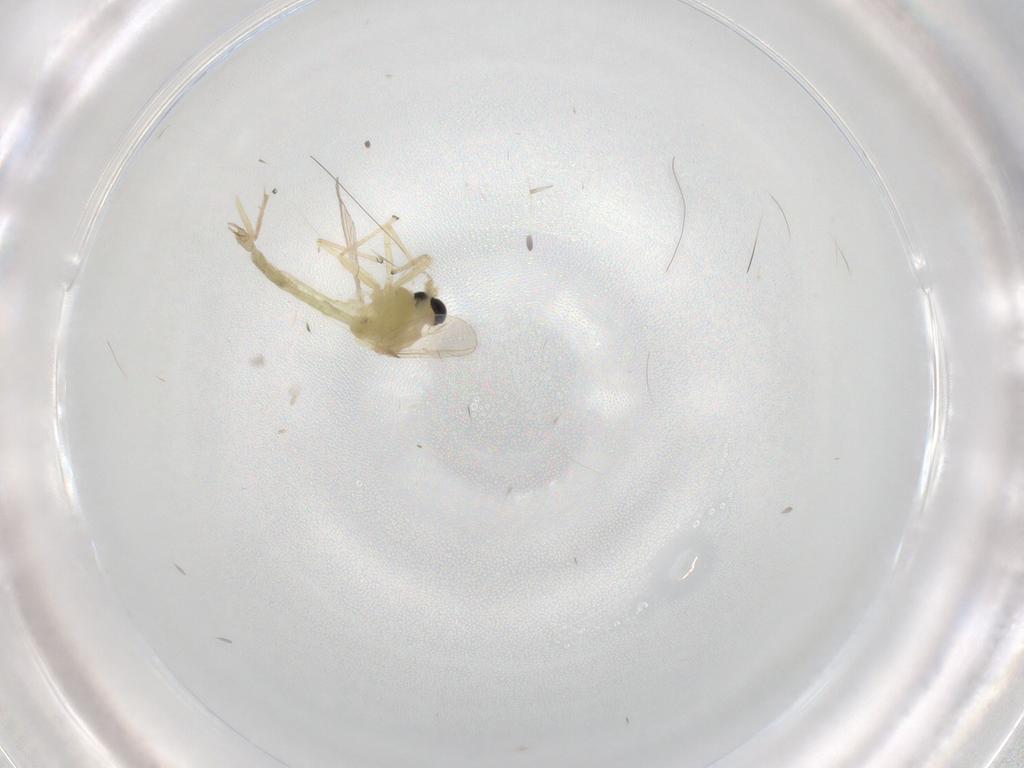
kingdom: Animalia
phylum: Arthropoda
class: Insecta
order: Diptera
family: Chironomidae
